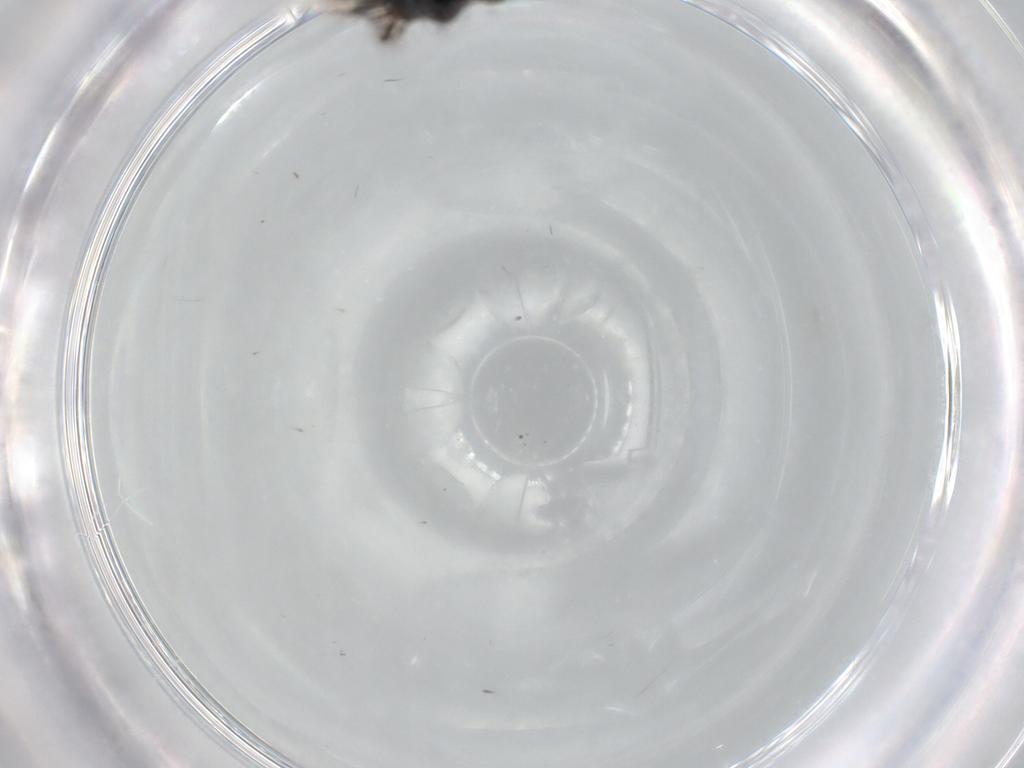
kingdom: Animalia
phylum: Arthropoda
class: Insecta
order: Hymenoptera
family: Scelionidae
